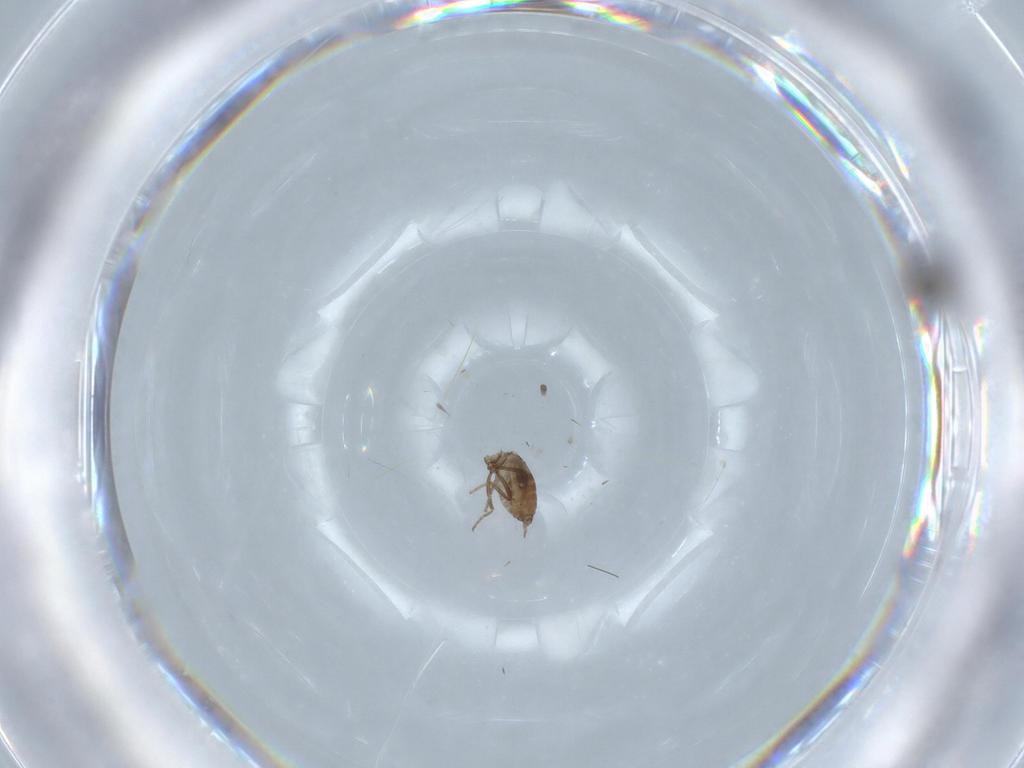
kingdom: Animalia
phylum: Arthropoda
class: Insecta
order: Diptera
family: Ceratopogonidae
